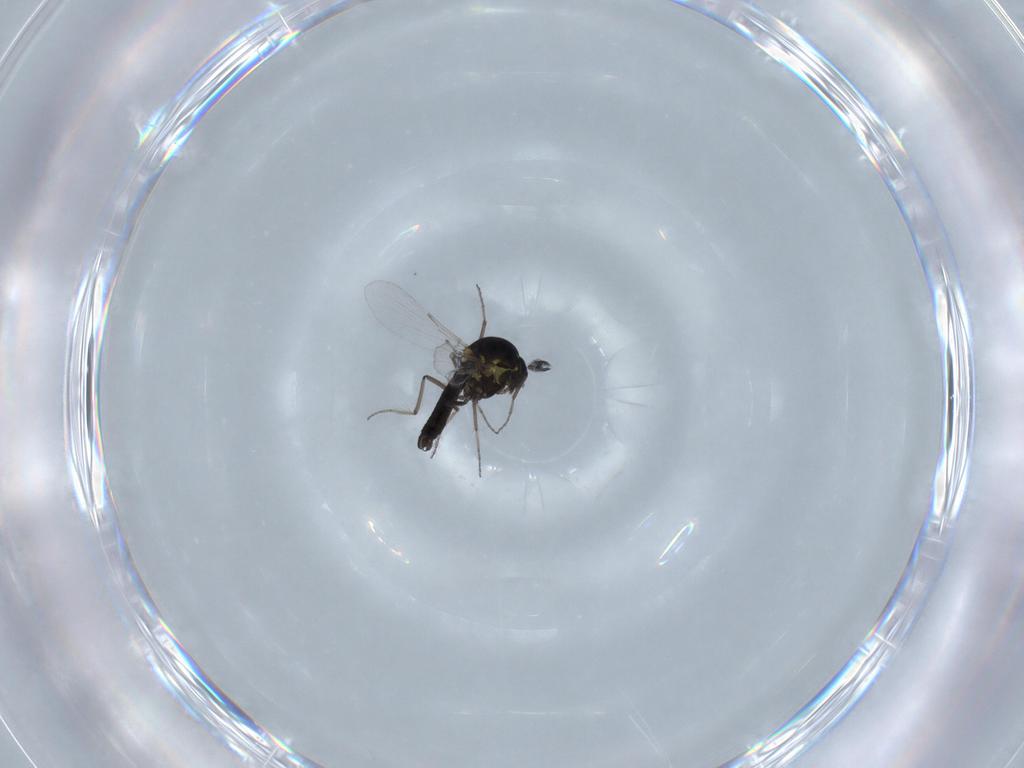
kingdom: Animalia
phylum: Arthropoda
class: Insecta
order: Diptera
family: Ceratopogonidae
